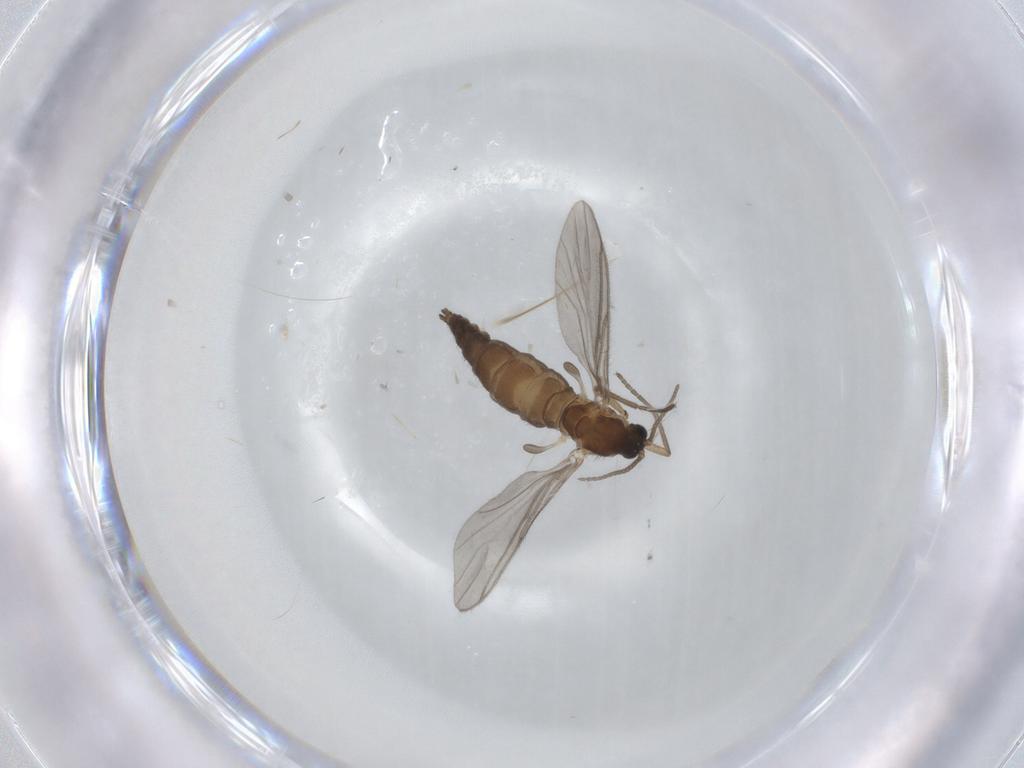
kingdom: Animalia
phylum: Arthropoda
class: Insecta
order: Diptera
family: Sciaridae
